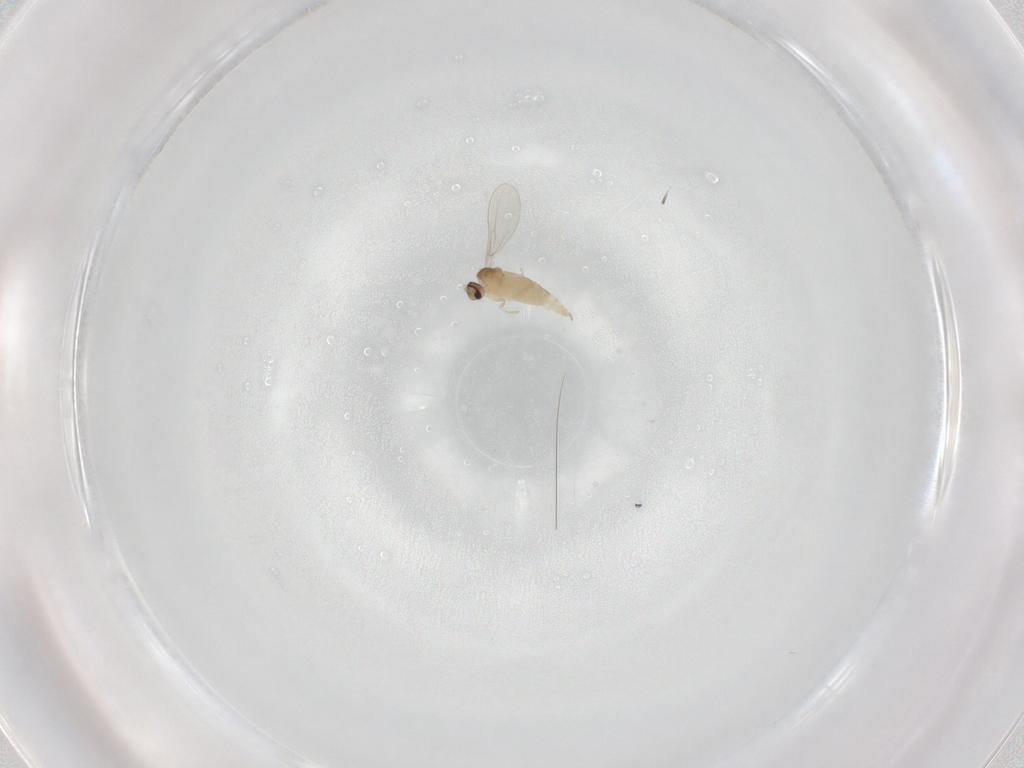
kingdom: Animalia
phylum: Arthropoda
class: Insecta
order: Diptera
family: Cecidomyiidae
